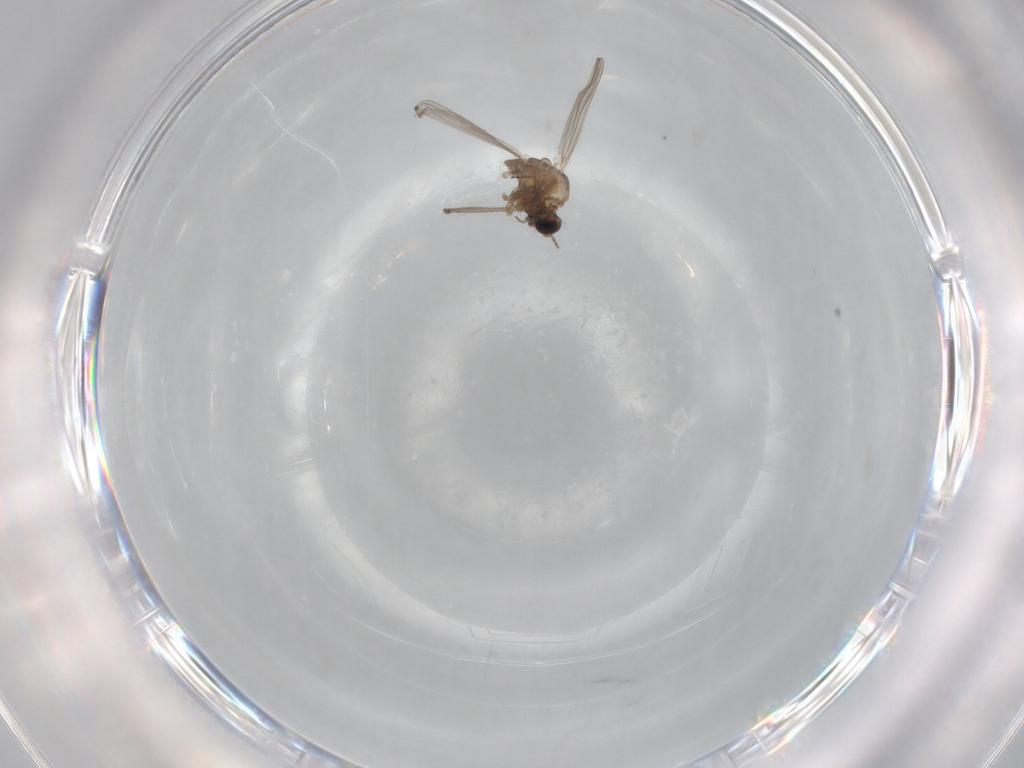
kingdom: Animalia
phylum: Arthropoda
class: Insecta
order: Diptera
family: Chironomidae
